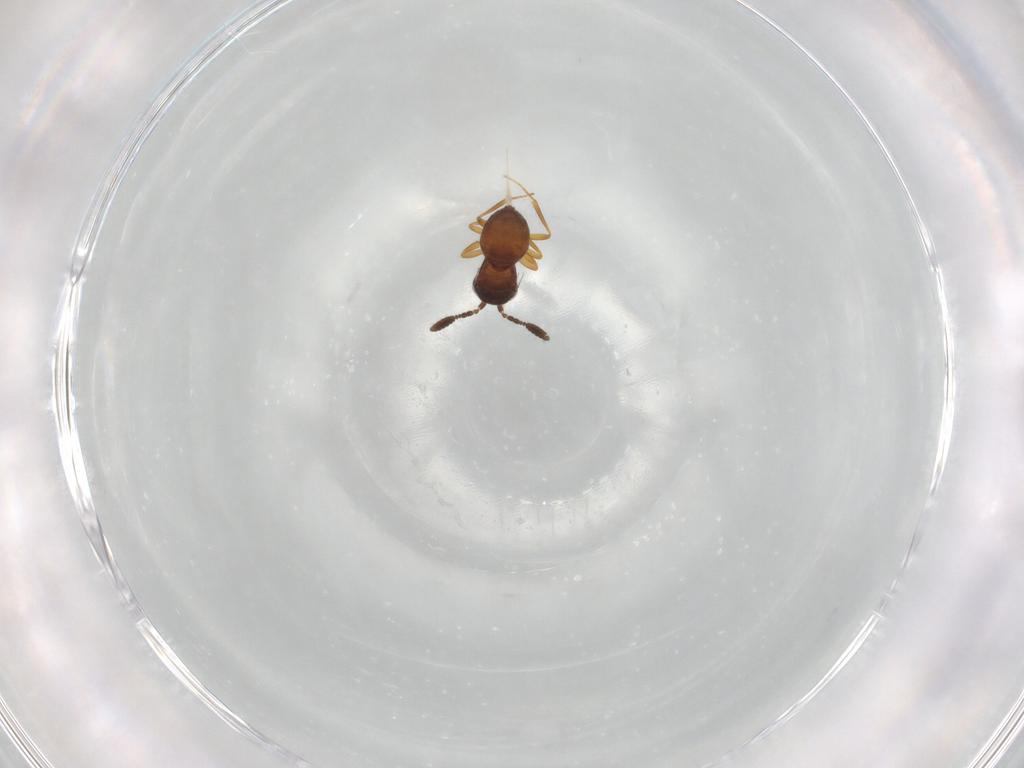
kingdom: Animalia
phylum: Arthropoda
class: Insecta
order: Hymenoptera
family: Scelionidae
